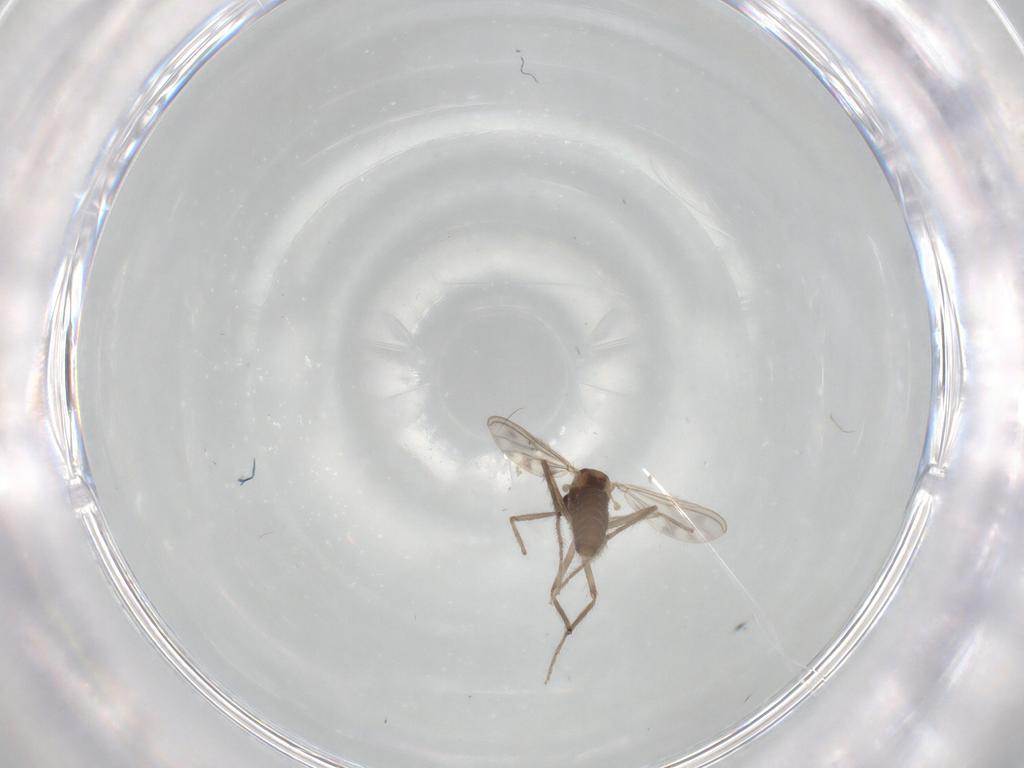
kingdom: Animalia
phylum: Arthropoda
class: Insecta
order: Diptera
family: Chironomidae
